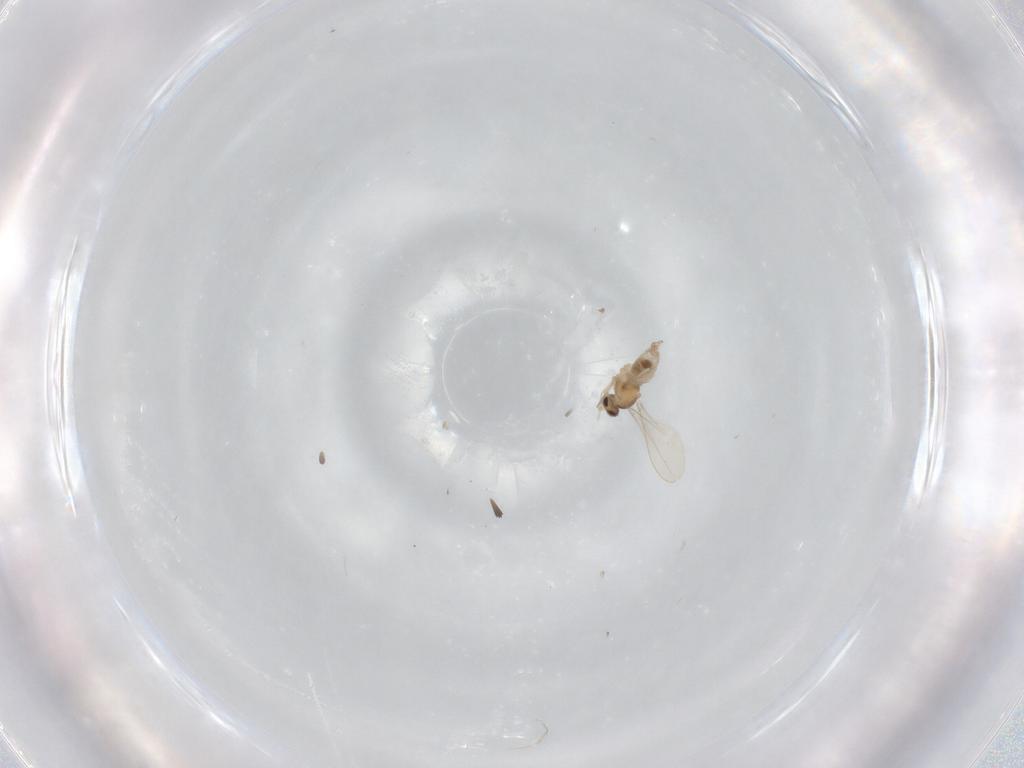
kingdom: Animalia
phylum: Arthropoda
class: Insecta
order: Diptera
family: Cecidomyiidae
